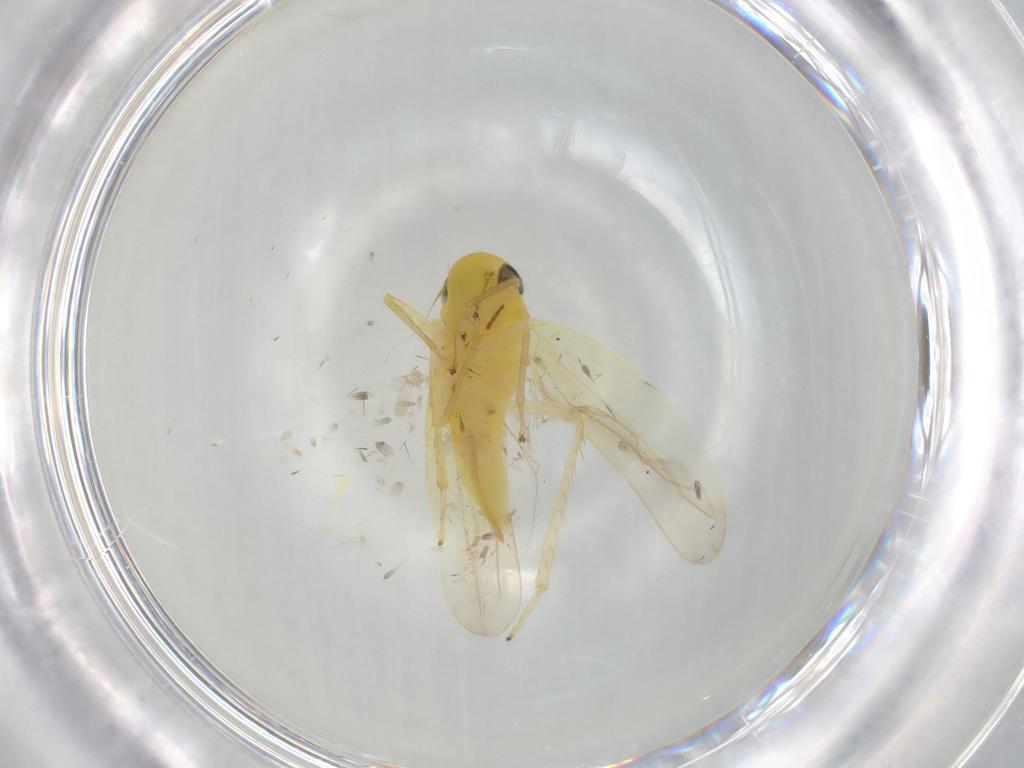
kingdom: Animalia
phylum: Arthropoda
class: Insecta
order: Hemiptera
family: Cicadellidae
